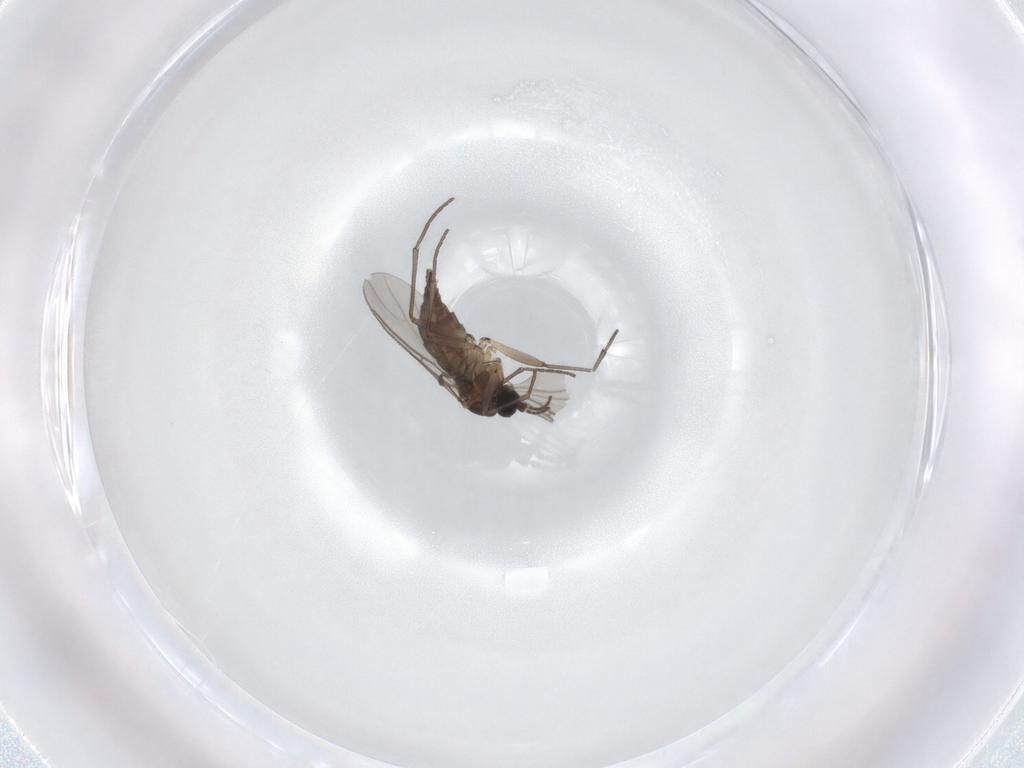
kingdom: Animalia
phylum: Arthropoda
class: Insecta
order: Diptera
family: Sciaridae
